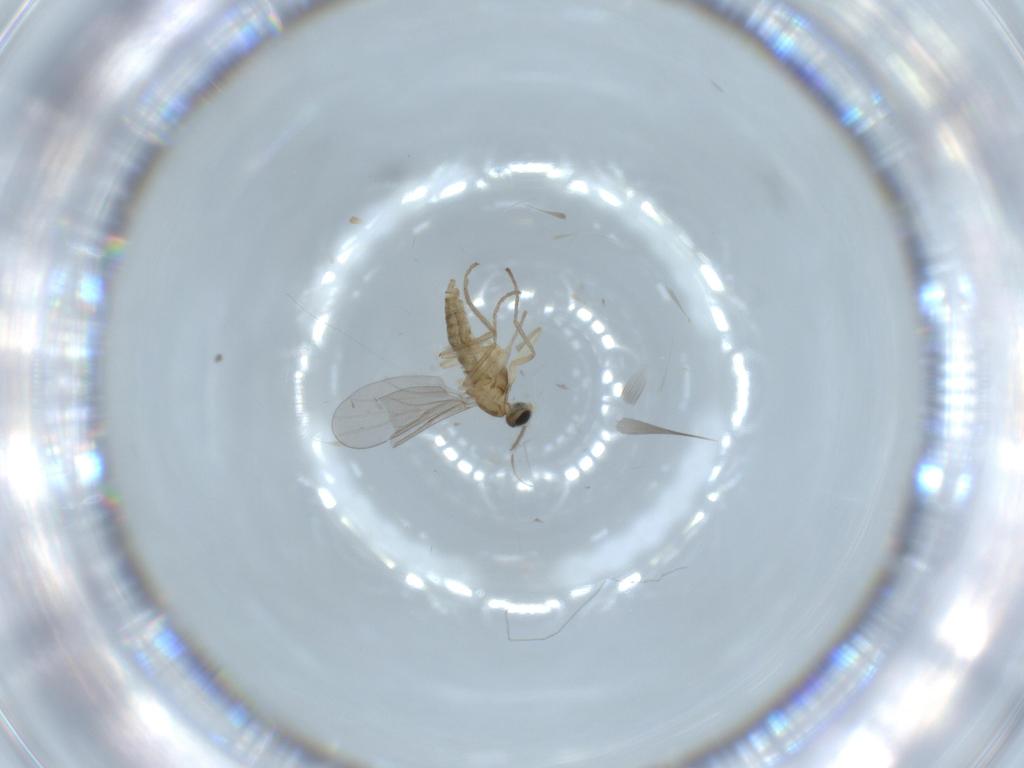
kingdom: Animalia
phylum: Arthropoda
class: Insecta
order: Diptera
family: Chironomidae
